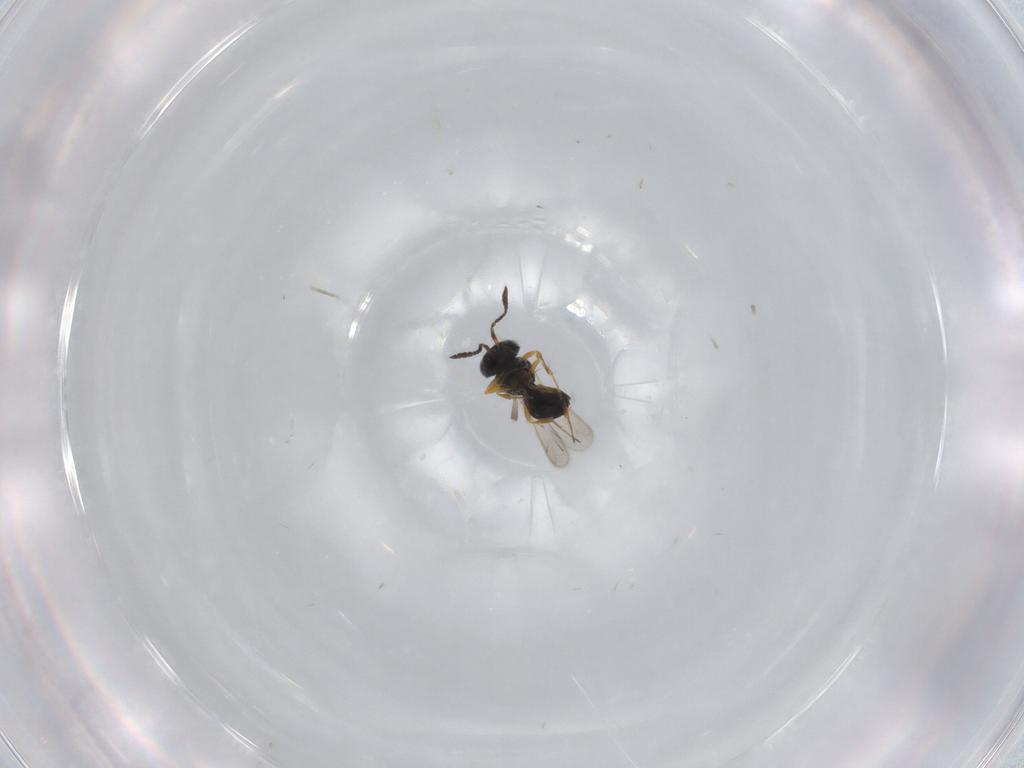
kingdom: Animalia
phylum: Arthropoda
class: Insecta
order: Hymenoptera
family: Scelionidae
